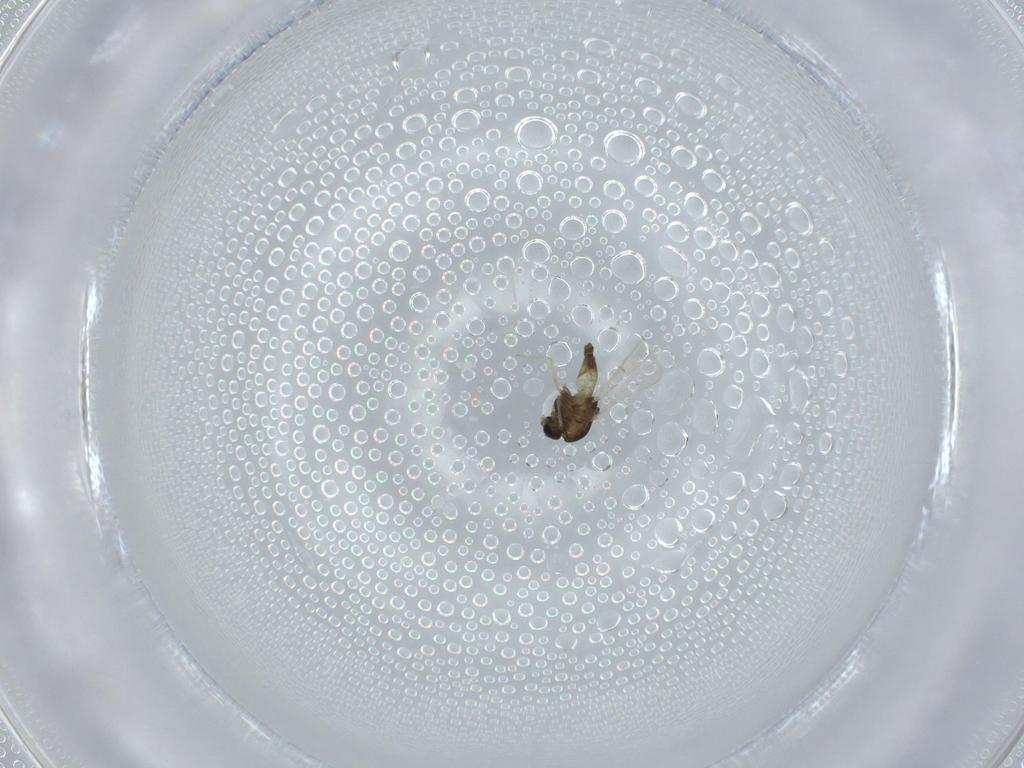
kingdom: Animalia
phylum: Arthropoda
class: Insecta
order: Diptera
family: Chironomidae
